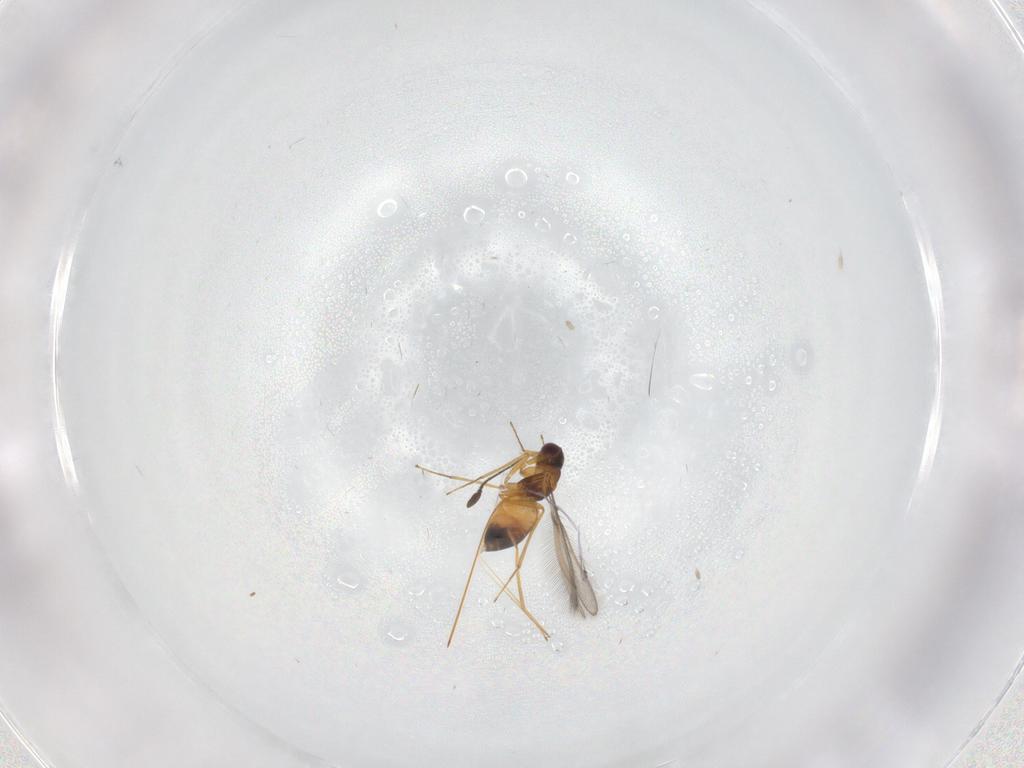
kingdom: Animalia
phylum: Arthropoda
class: Insecta
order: Hymenoptera
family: Mymaridae
